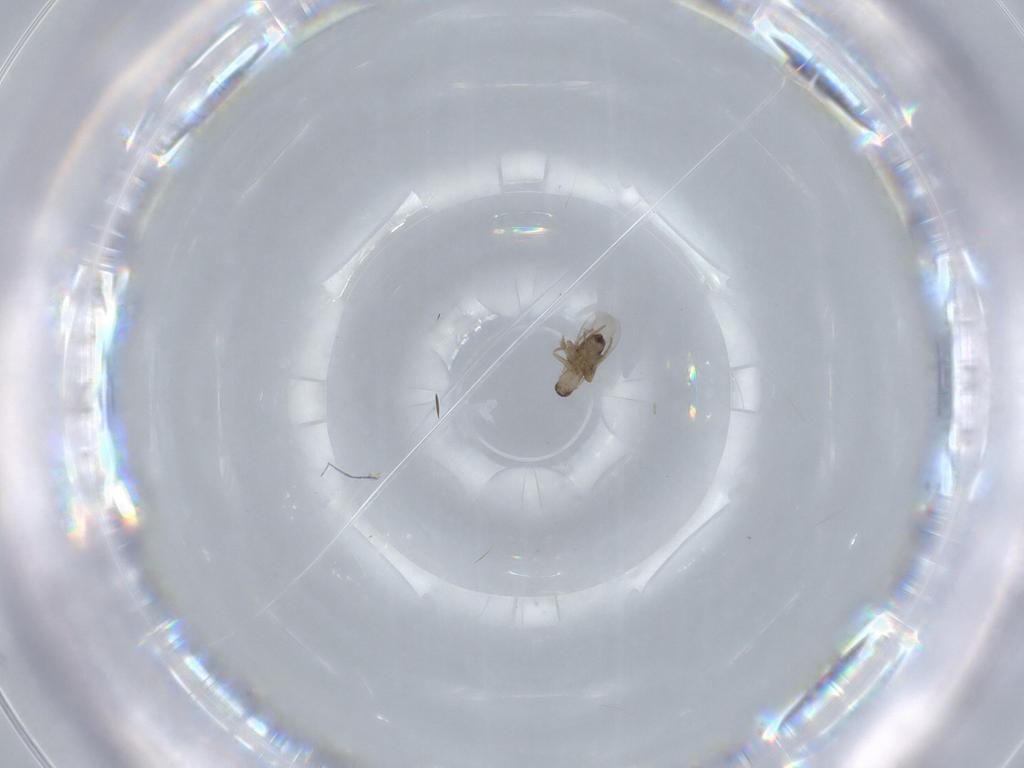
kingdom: Animalia
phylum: Arthropoda
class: Insecta
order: Diptera
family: Phoridae
